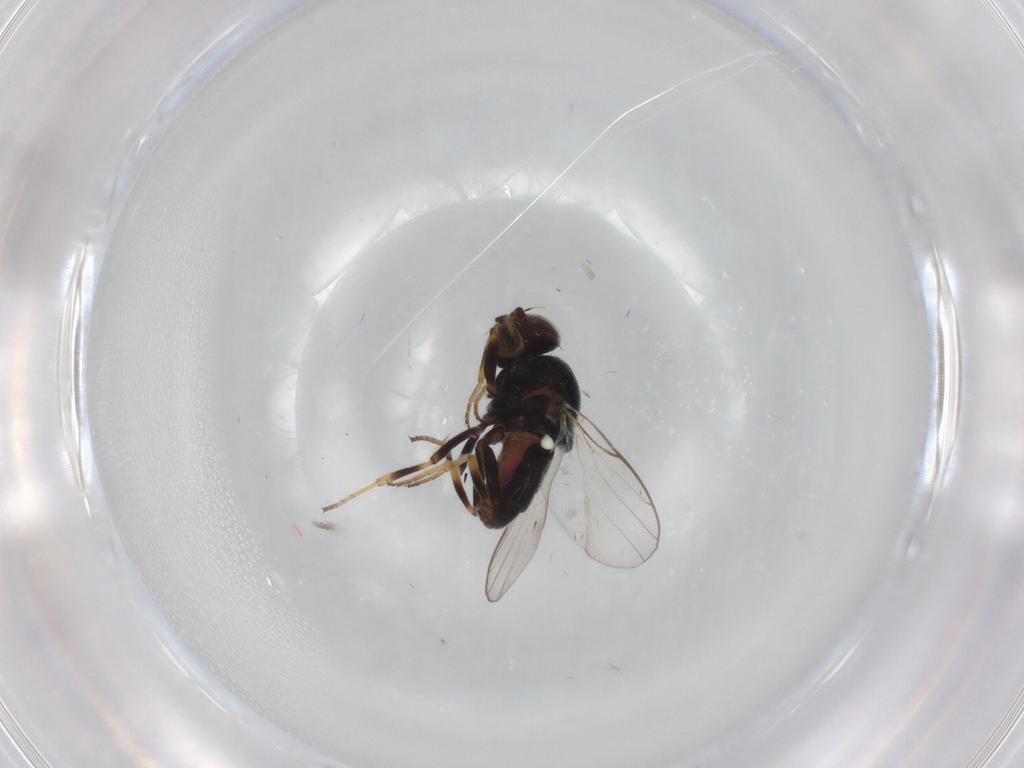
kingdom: Animalia
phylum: Arthropoda
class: Insecta
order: Diptera
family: Chloropidae
